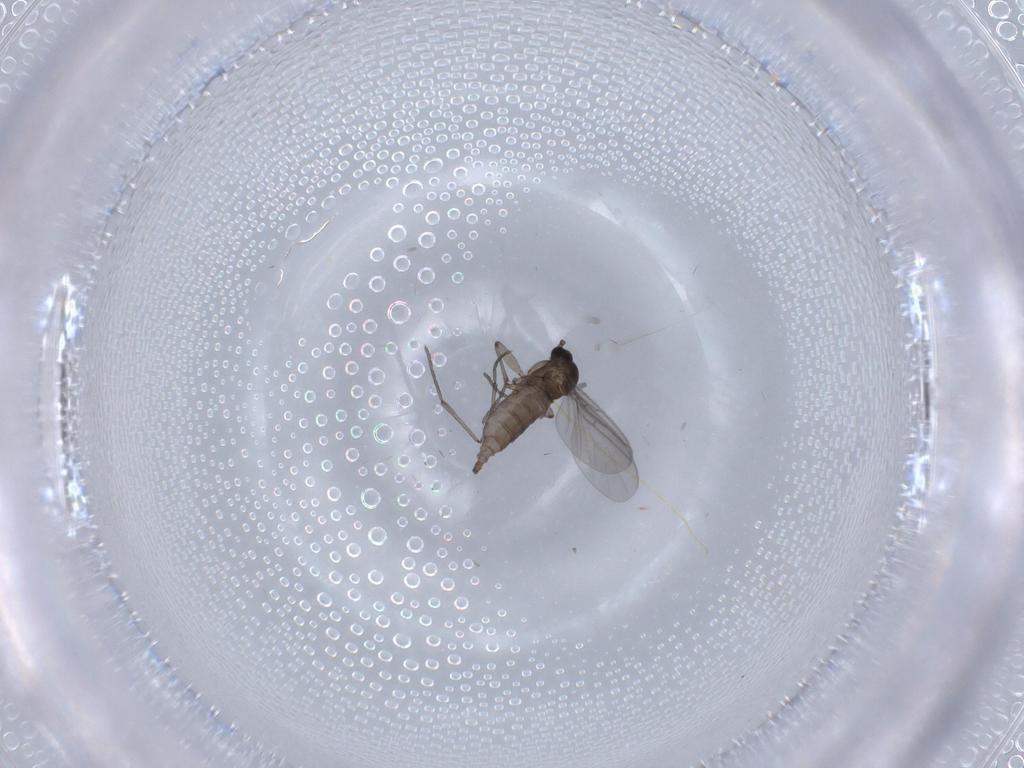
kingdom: Animalia
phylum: Arthropoda
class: Insecta
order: Diptera
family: Sciaridae
